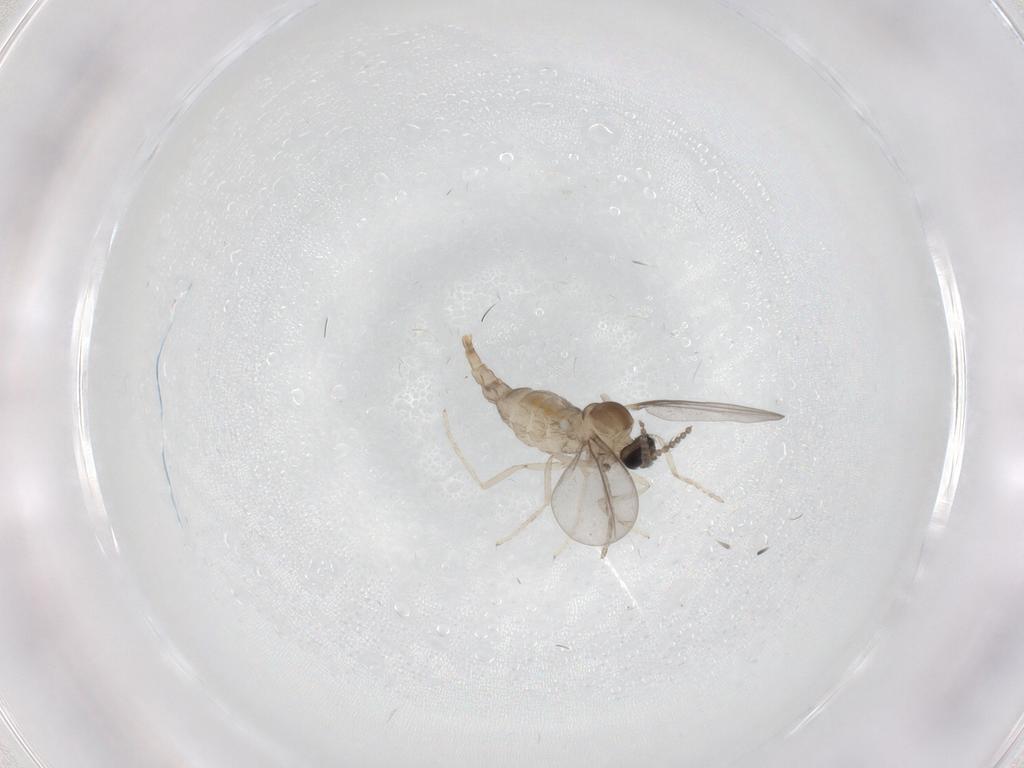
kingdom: Animalia
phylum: Arthropoda
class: Insecta
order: Diptera
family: Cecidomyiidae
